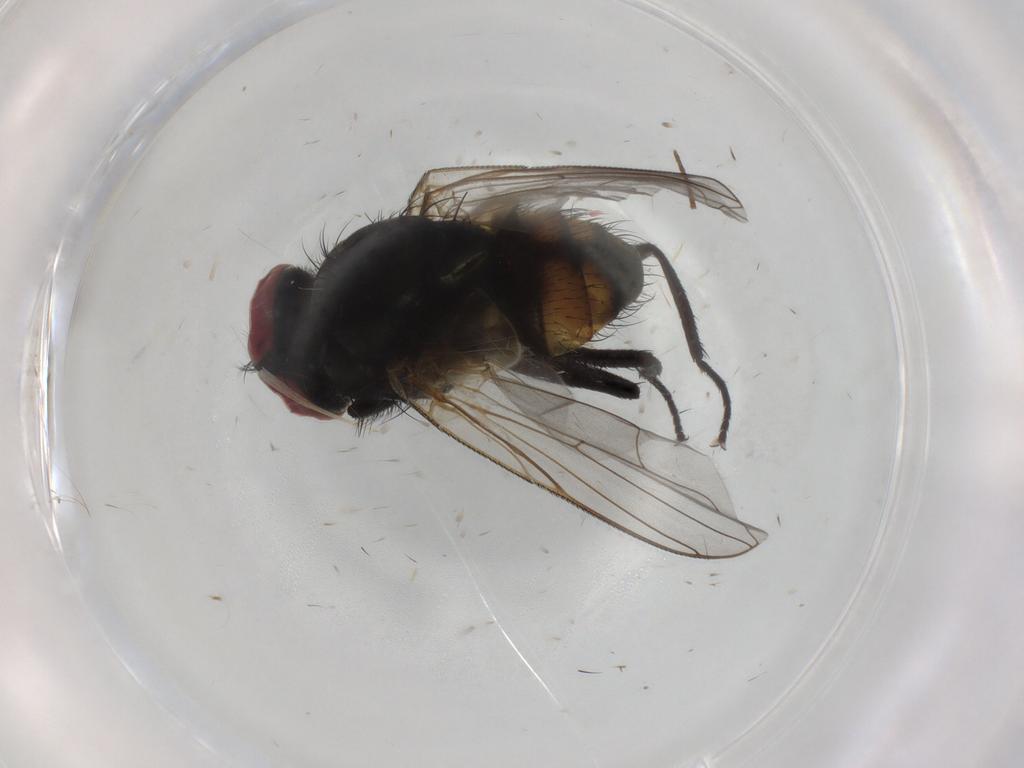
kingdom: Animalia
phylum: Arthropoda
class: Insecta
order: Diptera
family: Muscidae
